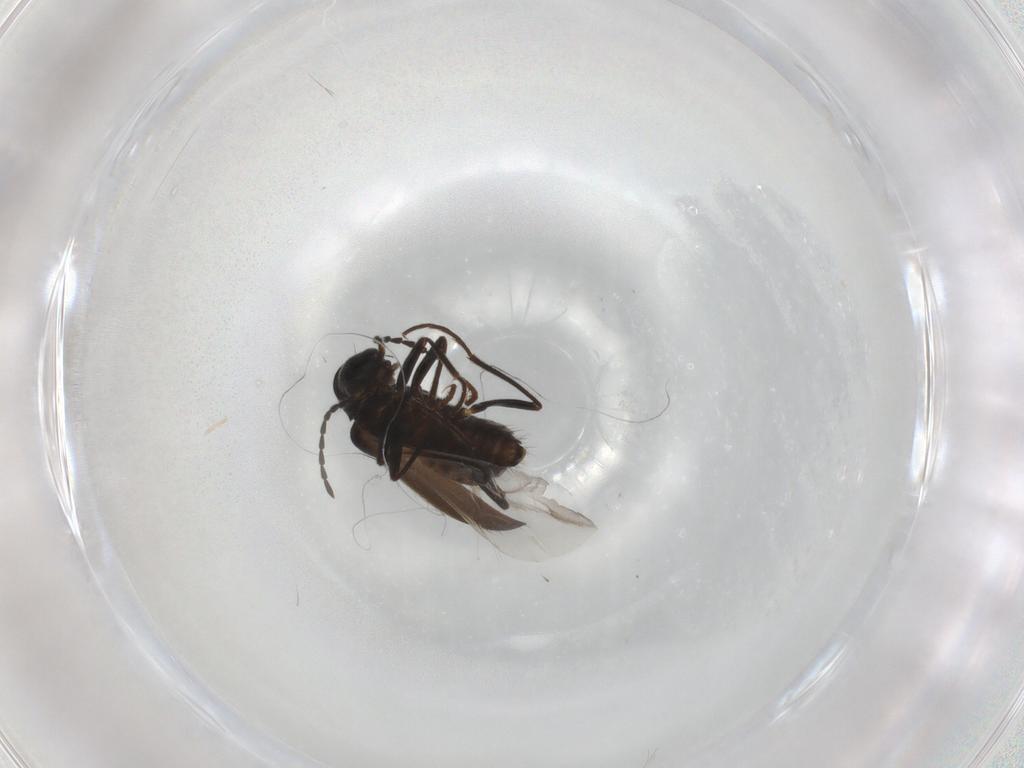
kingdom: Animalia
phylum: Arthropoda
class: Insecta
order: Coleoptera
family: Melyridae
